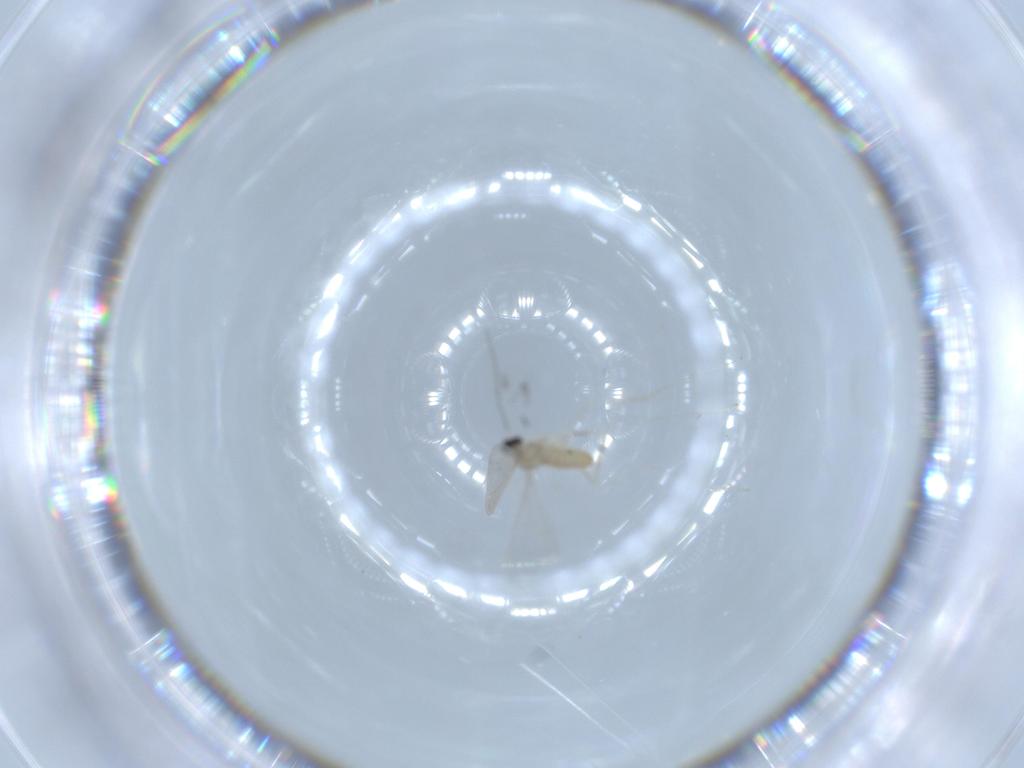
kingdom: Animalia
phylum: Arthropoda
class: Insecta
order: Diptera
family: Cecidomyiidae
